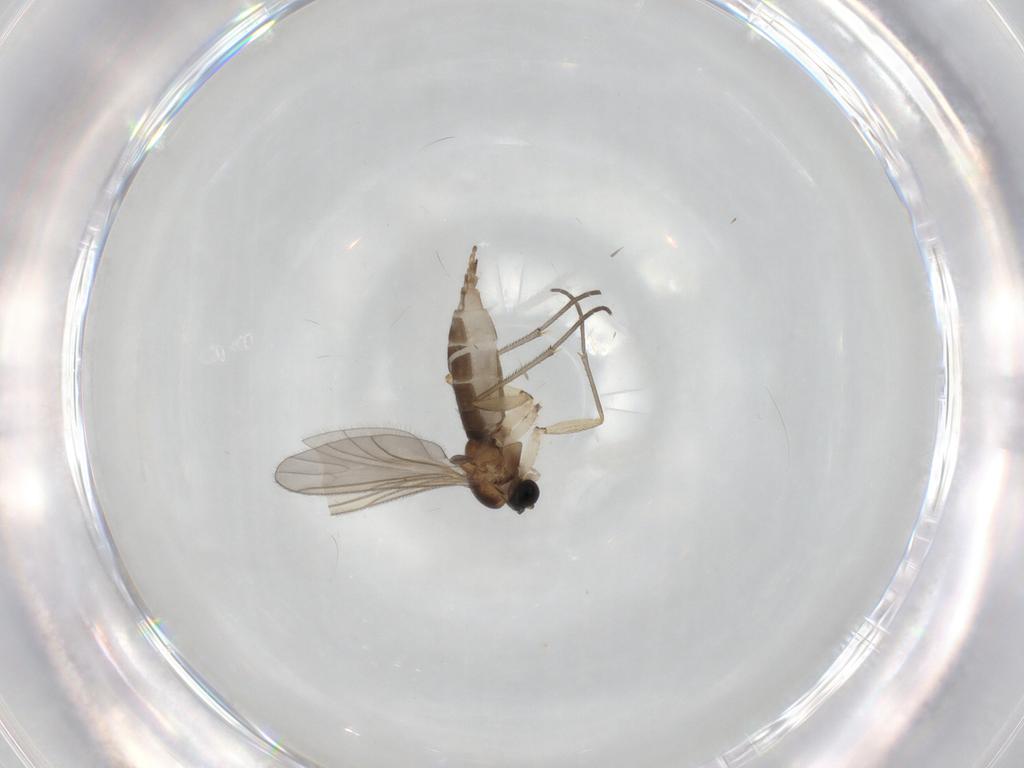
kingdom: Animalia
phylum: Arthropoda
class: Insecta
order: Diptera
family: Sciaridae
